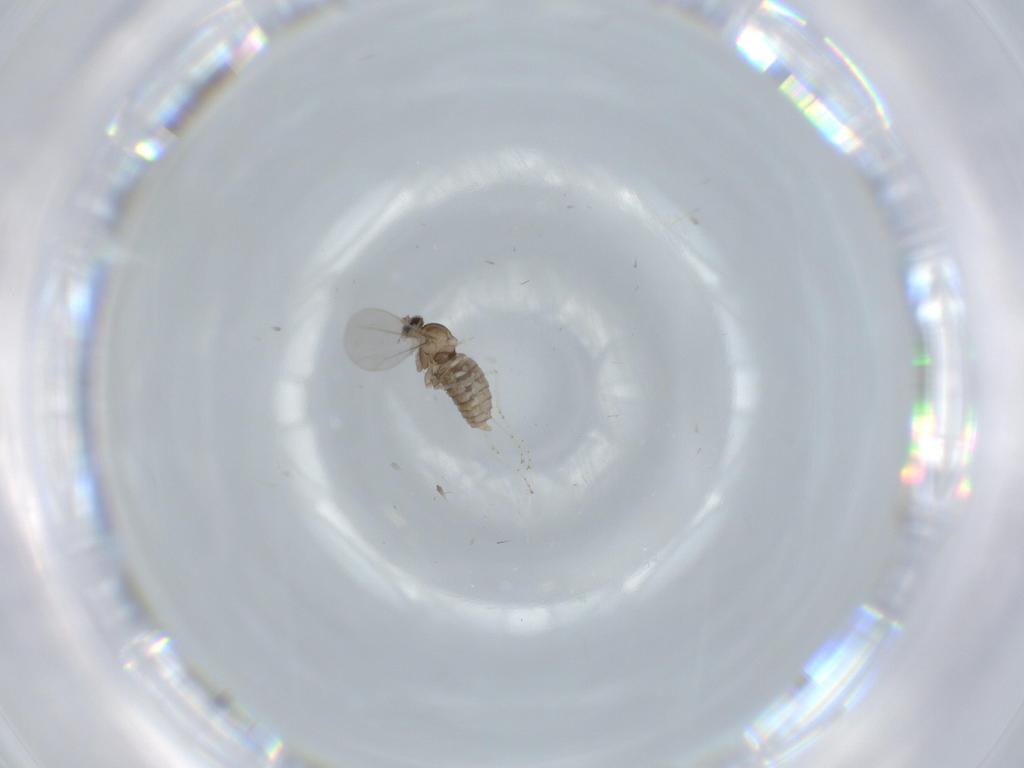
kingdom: Animalia
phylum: Arthropoda
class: Insecta
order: Diptera
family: Cecidomyiidae
